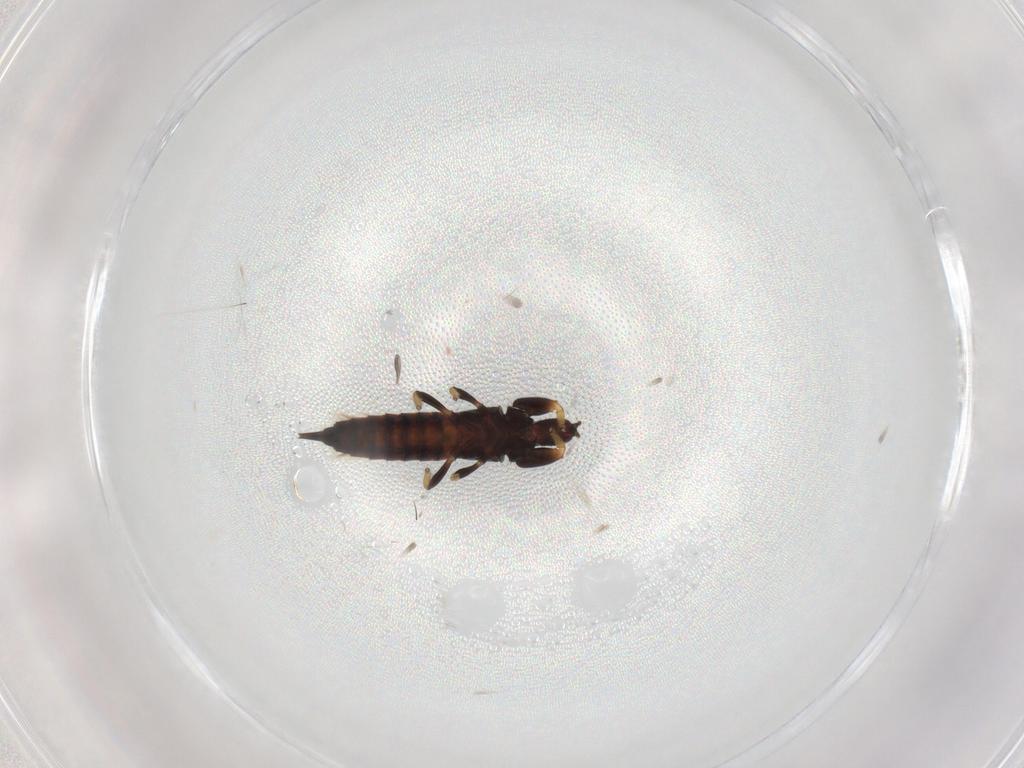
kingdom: Animalia
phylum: Arthropoda
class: Insecta
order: Thysanoptera
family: Phlaeothripidae
